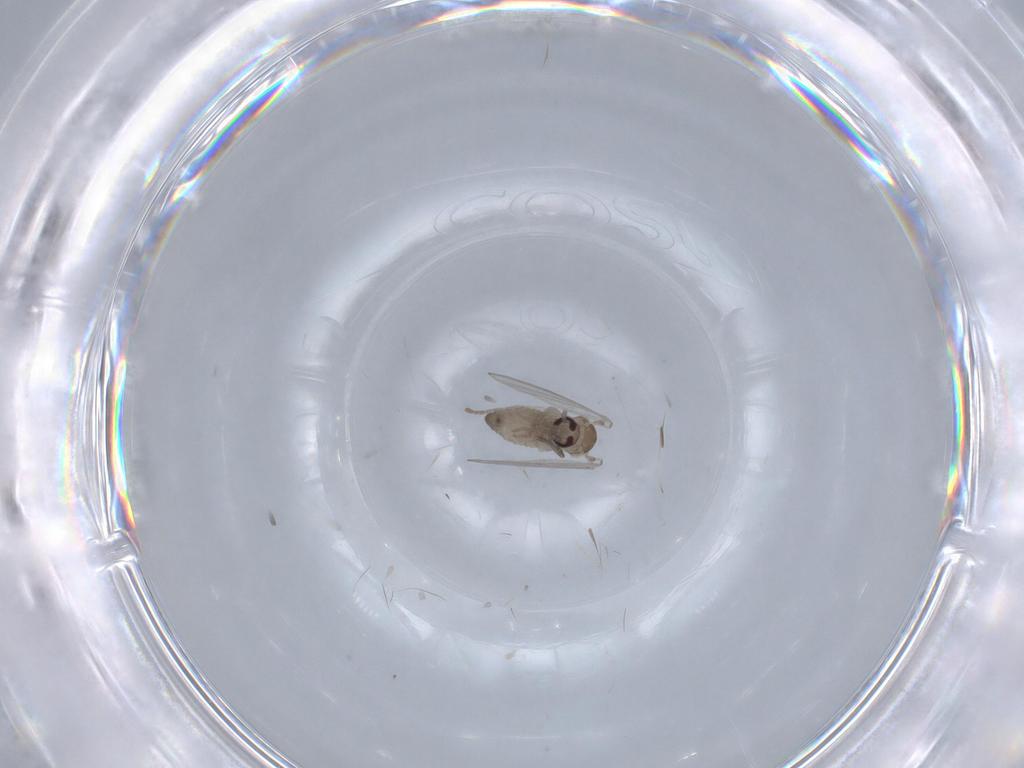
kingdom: Animalia
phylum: Arthropoda
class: Insecta
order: Diptera
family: Psychodidae
